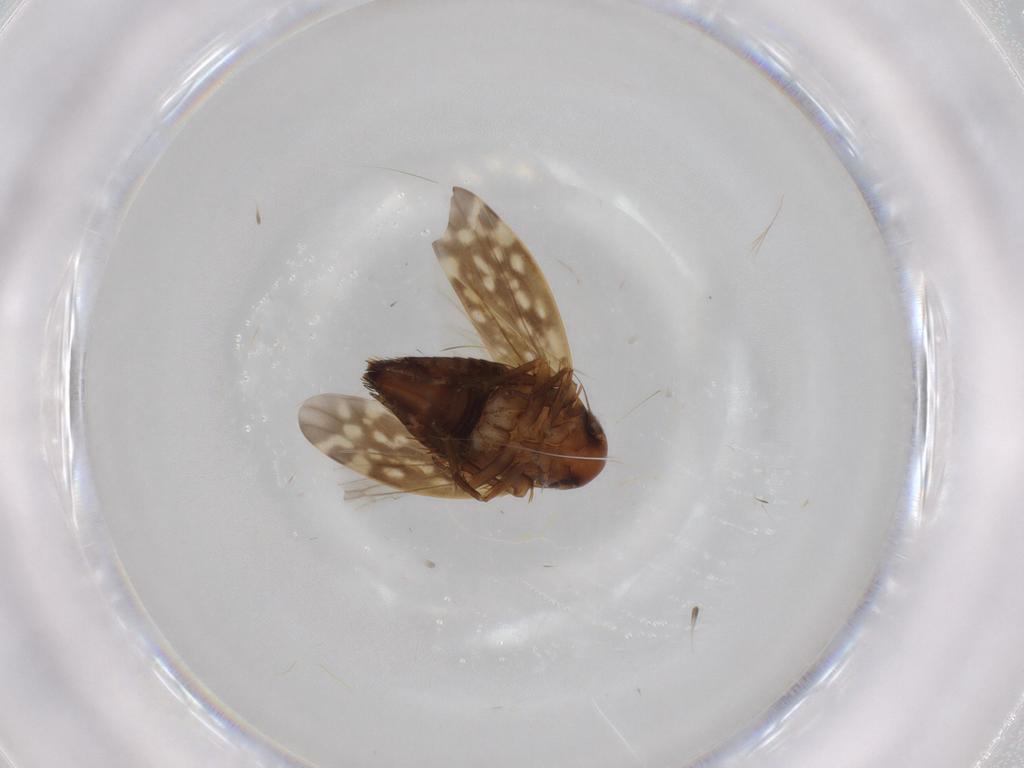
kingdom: Animalia
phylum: Arthropoda
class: Insecta
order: Hemiptera
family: Cicadellidae
